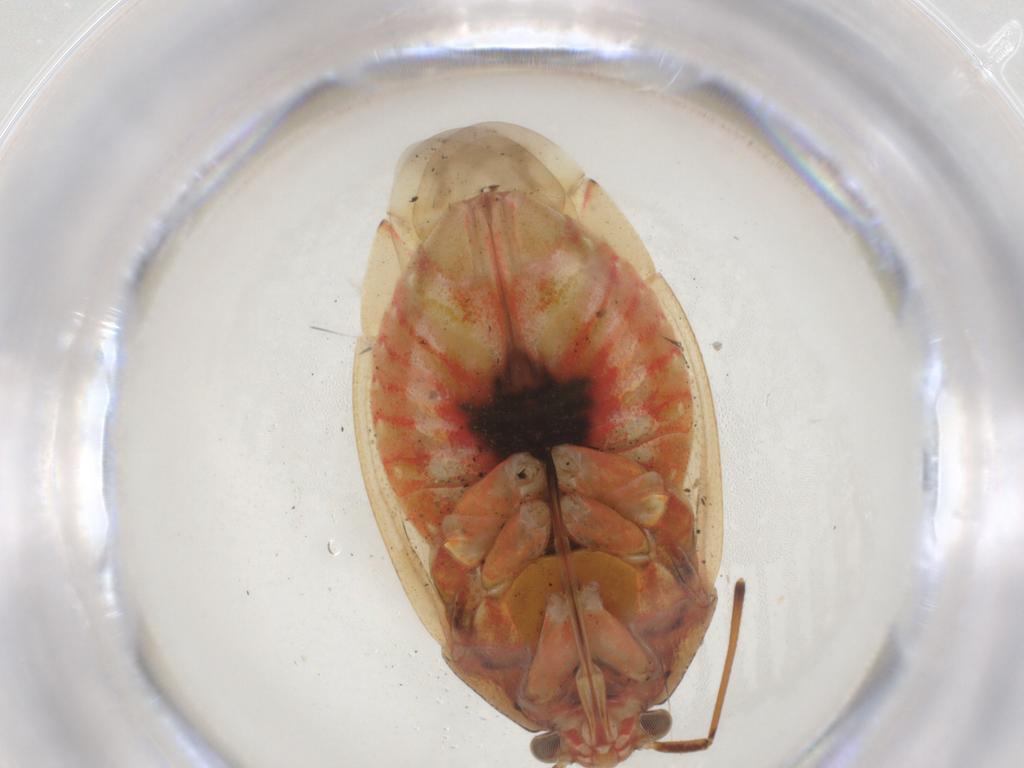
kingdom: Animalia
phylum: Arthropoda
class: Insecta
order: Hemiptera
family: Miridae
